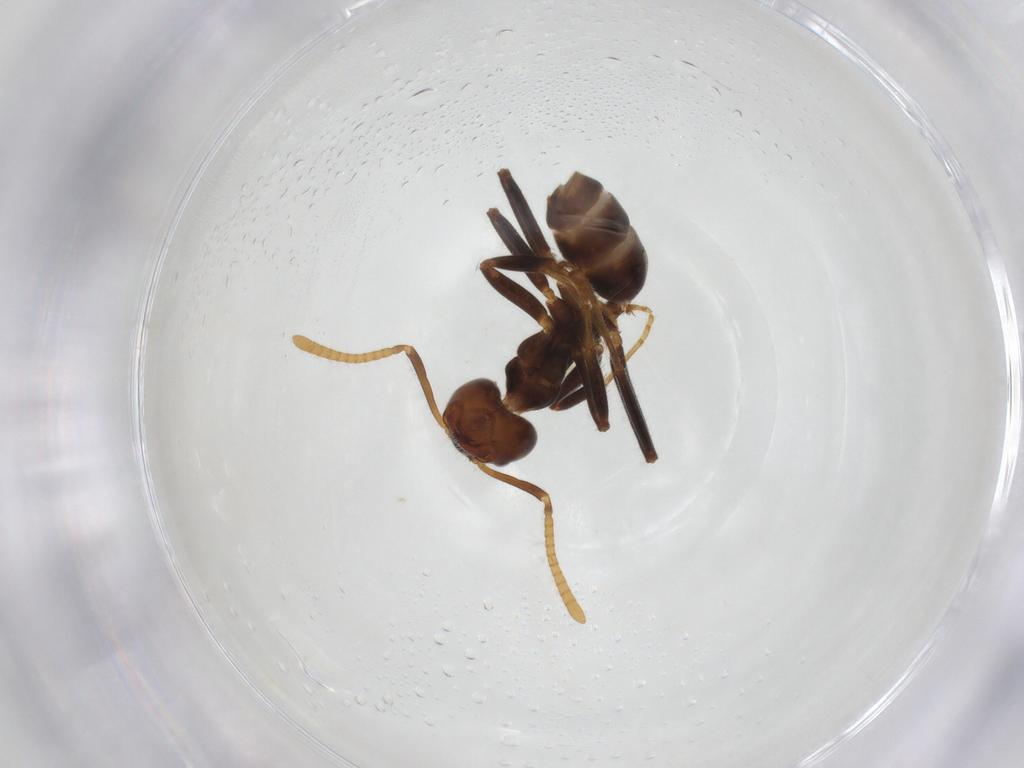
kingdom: Animalia
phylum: Arthropoda
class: Insecta
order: Hymenoptera
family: Formicidae
